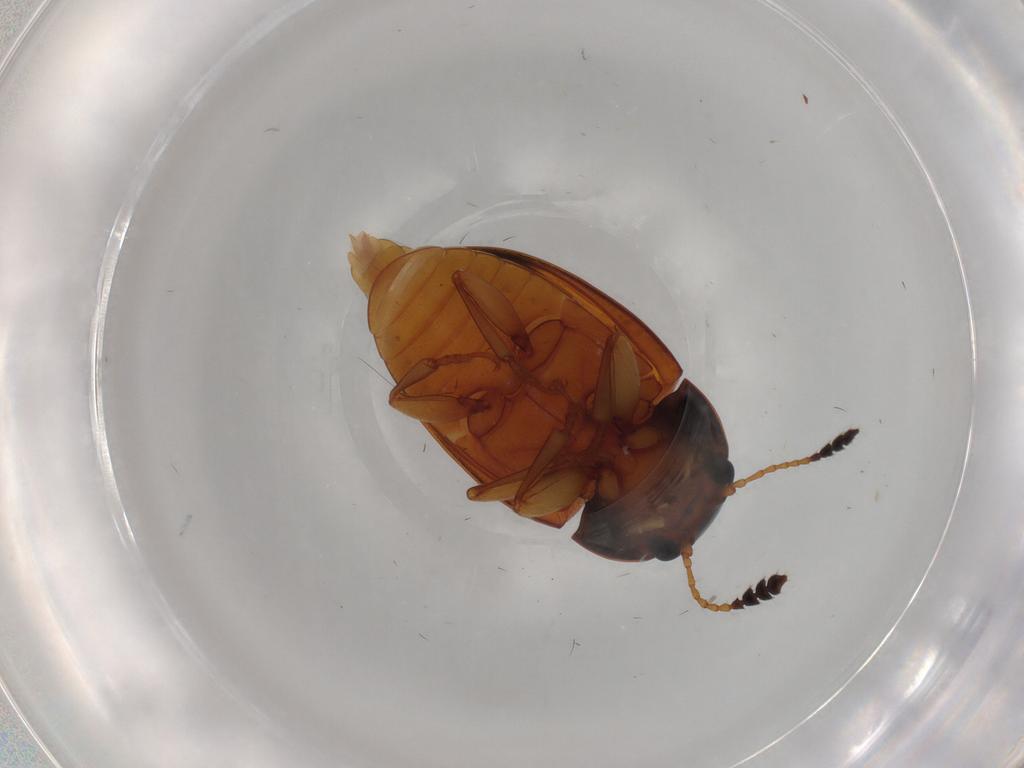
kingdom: Animalia
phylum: Arthropoda
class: Insecta
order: Coleoptera
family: Erotylidae
